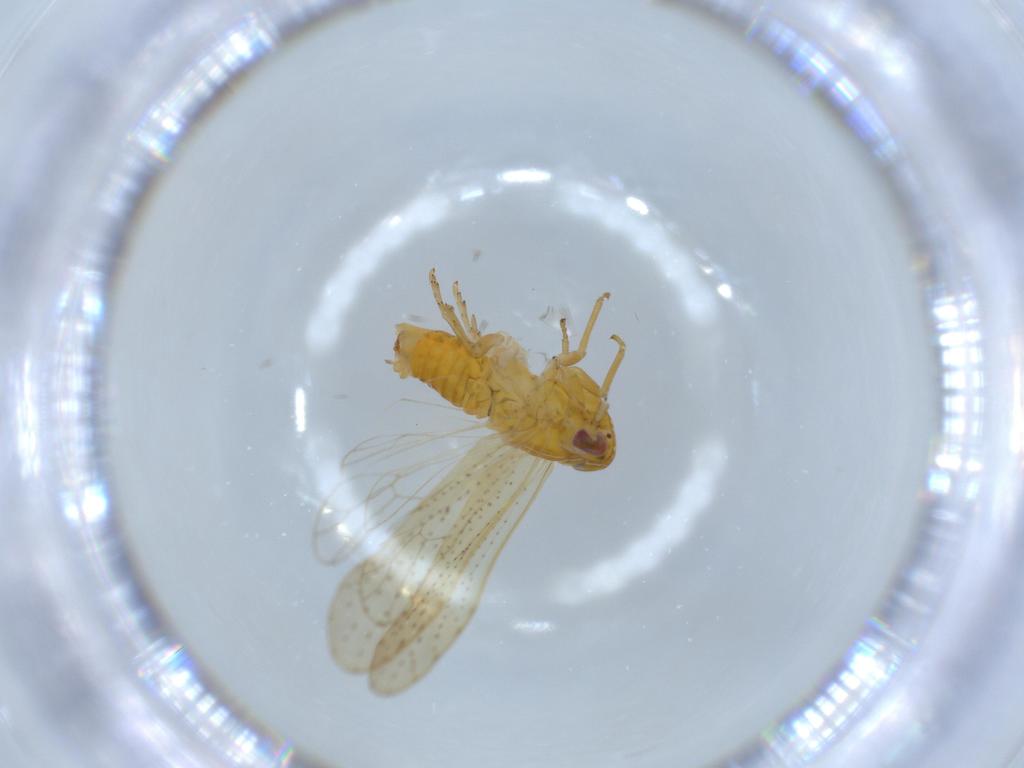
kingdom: Animalia
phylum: Arthropoda
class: Insecta
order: Hemiptera
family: Delphacidae
